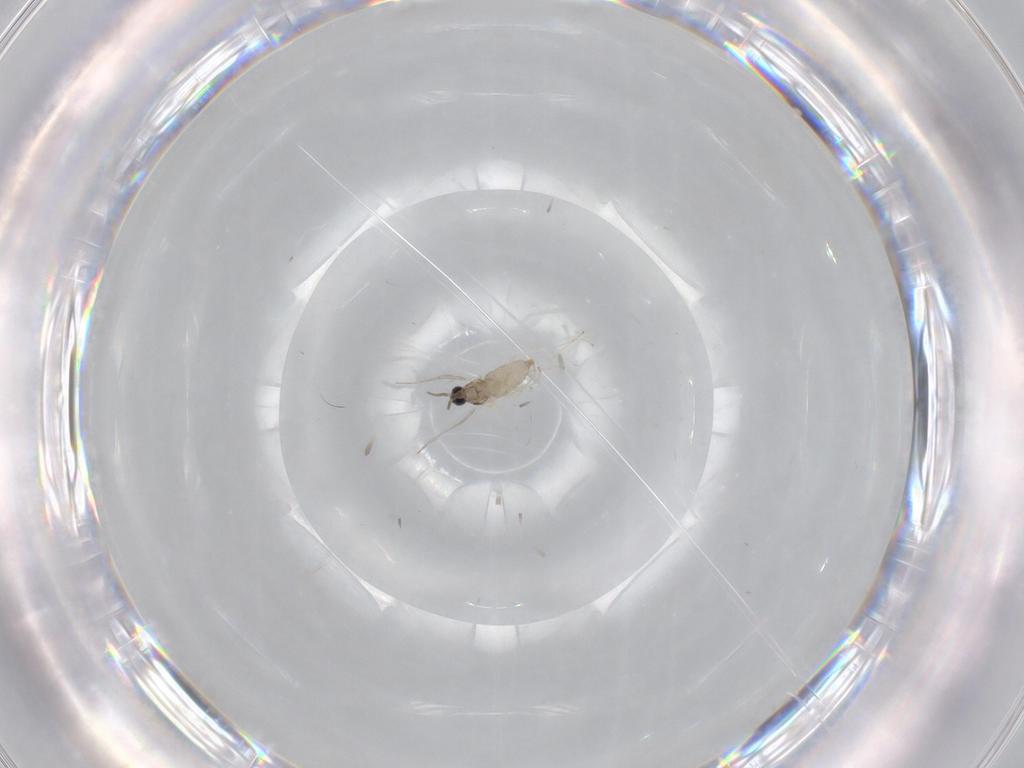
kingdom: Animalia
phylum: Arthropoda
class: Insecta
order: Diptera
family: Cecidomyiidae
